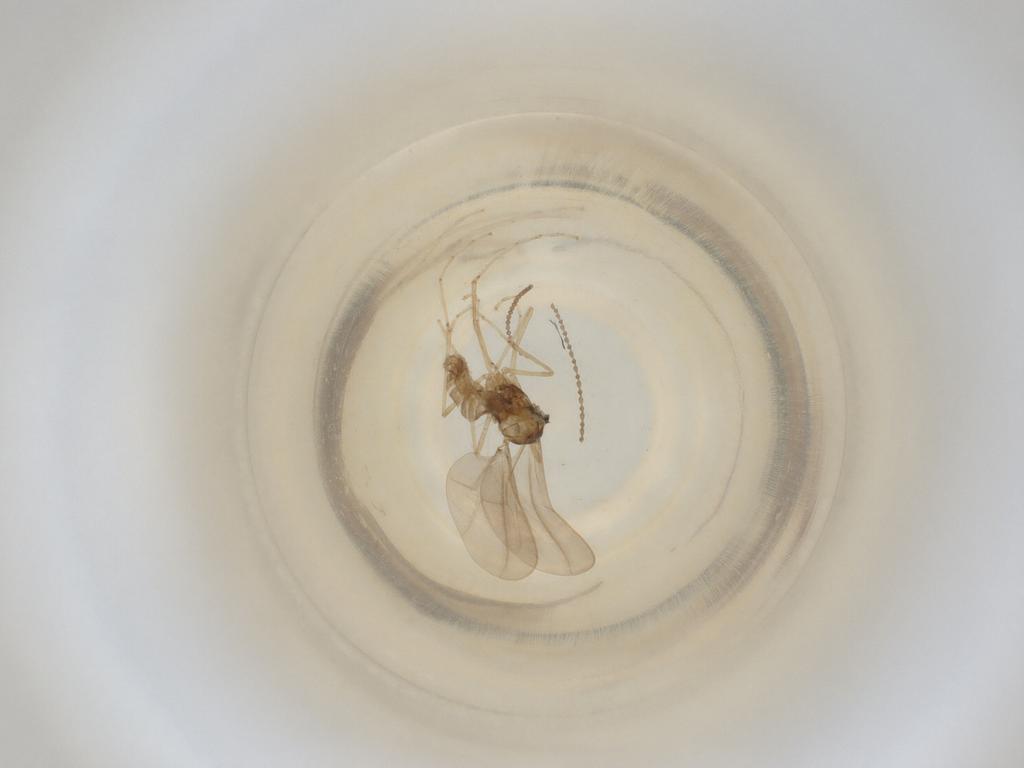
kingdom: Animalia
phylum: Arthropoda
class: Insecta
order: Diptera
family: Cecidomyiidae
